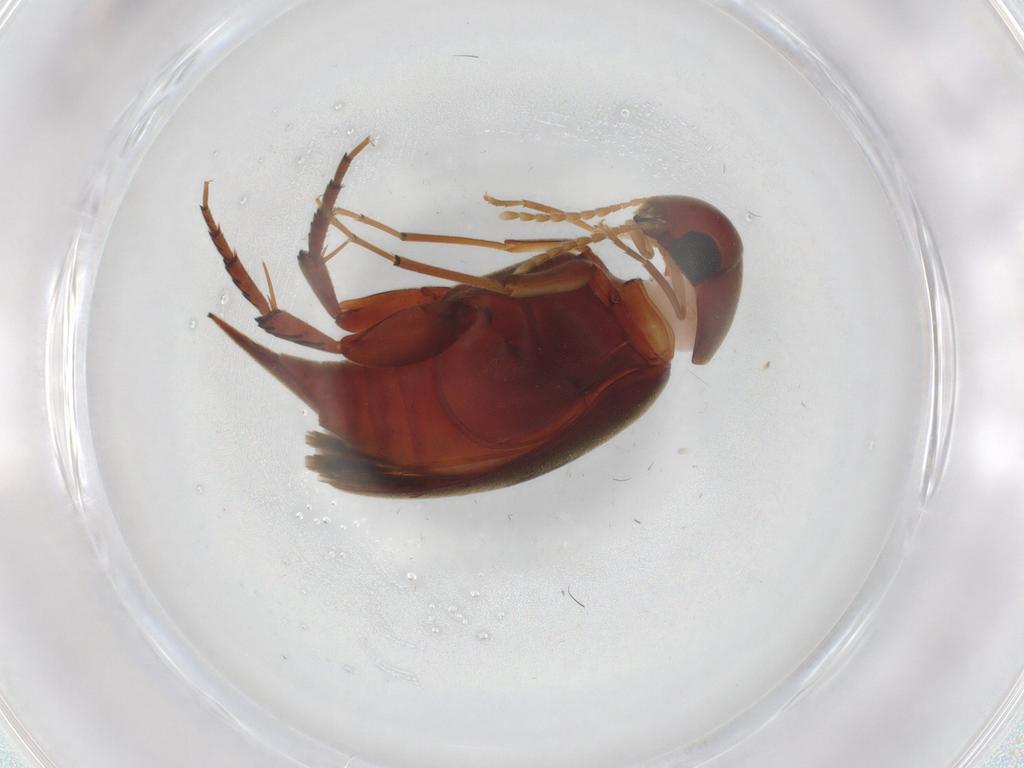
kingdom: Animalia
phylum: Arthropoda
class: Insecta
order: Coleoptera
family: Mordellidae
